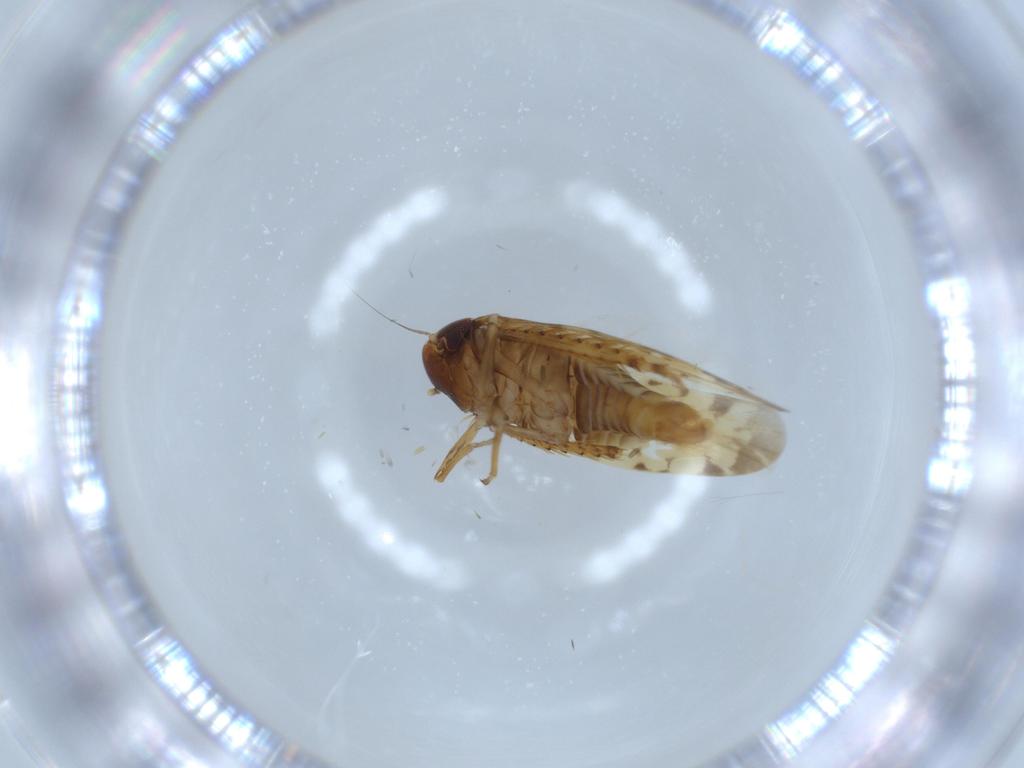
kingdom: Animalia
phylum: Arthropoda
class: Insecta
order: Hemiptera
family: Cicadellidae
